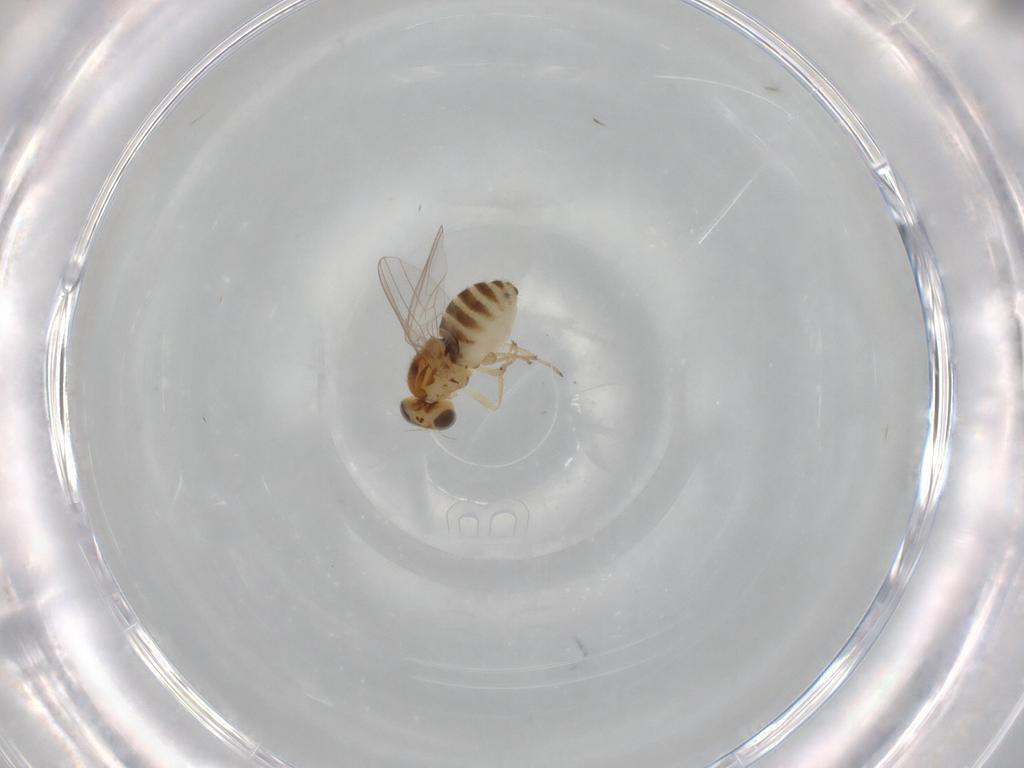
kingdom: Animalia
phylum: Arthropoda
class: Insecta
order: Diptera
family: Chyromyidae
